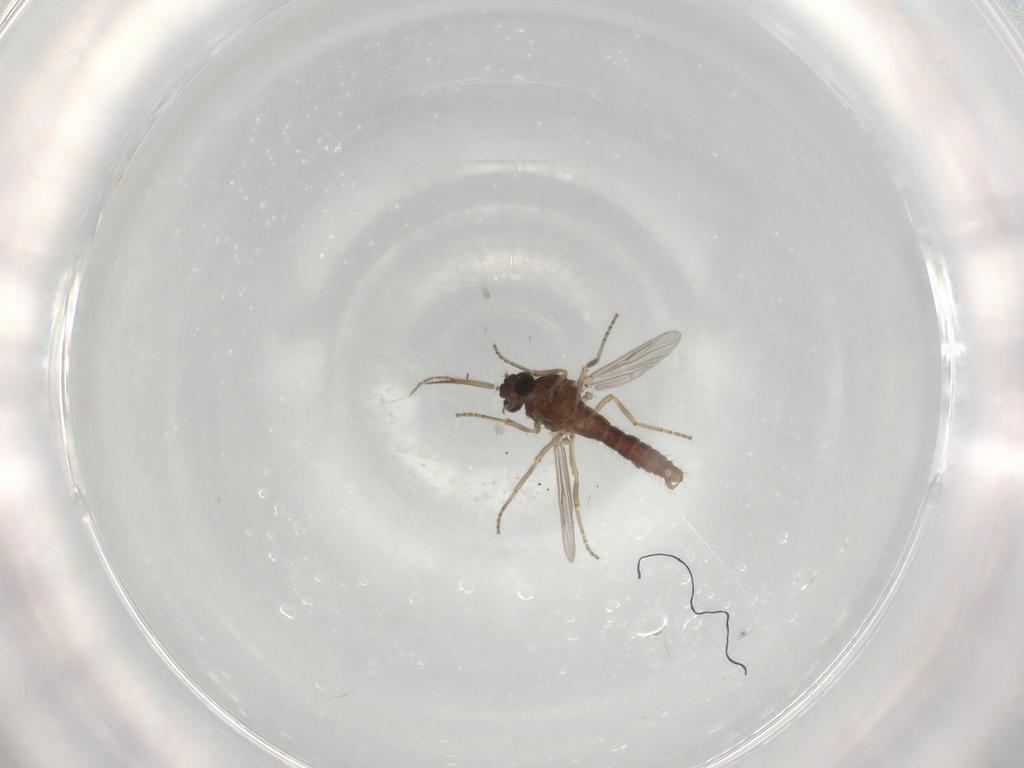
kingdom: Animalia
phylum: Arthropoda
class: Insecta
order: Diptera
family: Ceratopogonidae
